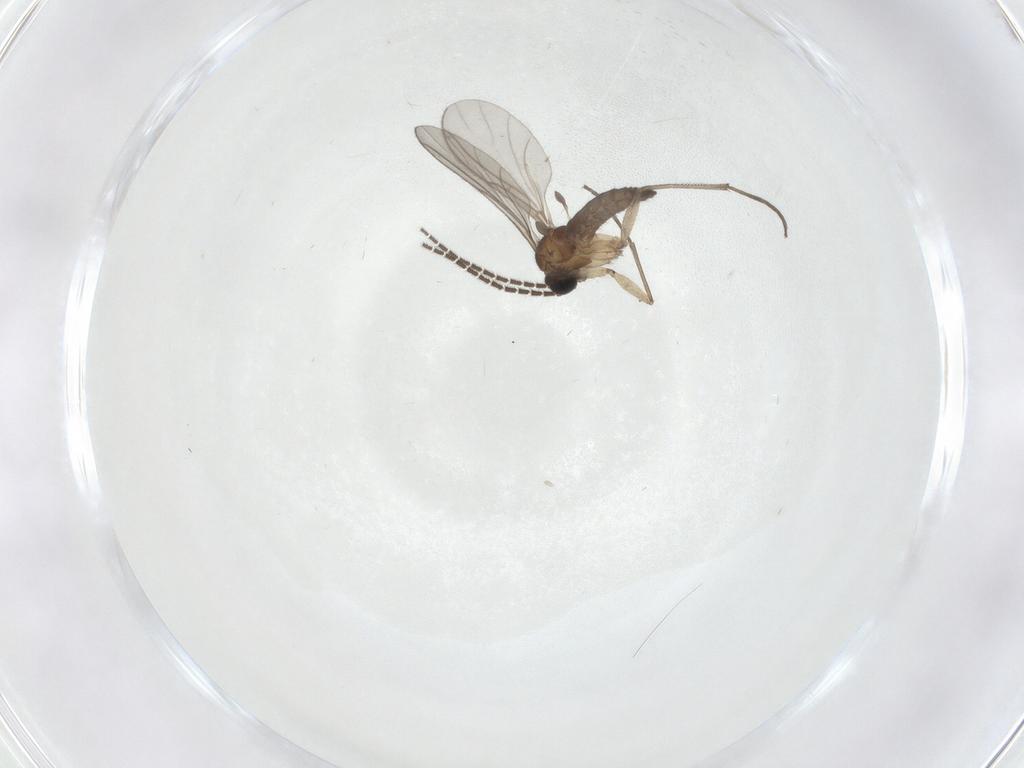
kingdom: Animalia
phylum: Arthropoda
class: Insecta
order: Diptera
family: Sciaridae
